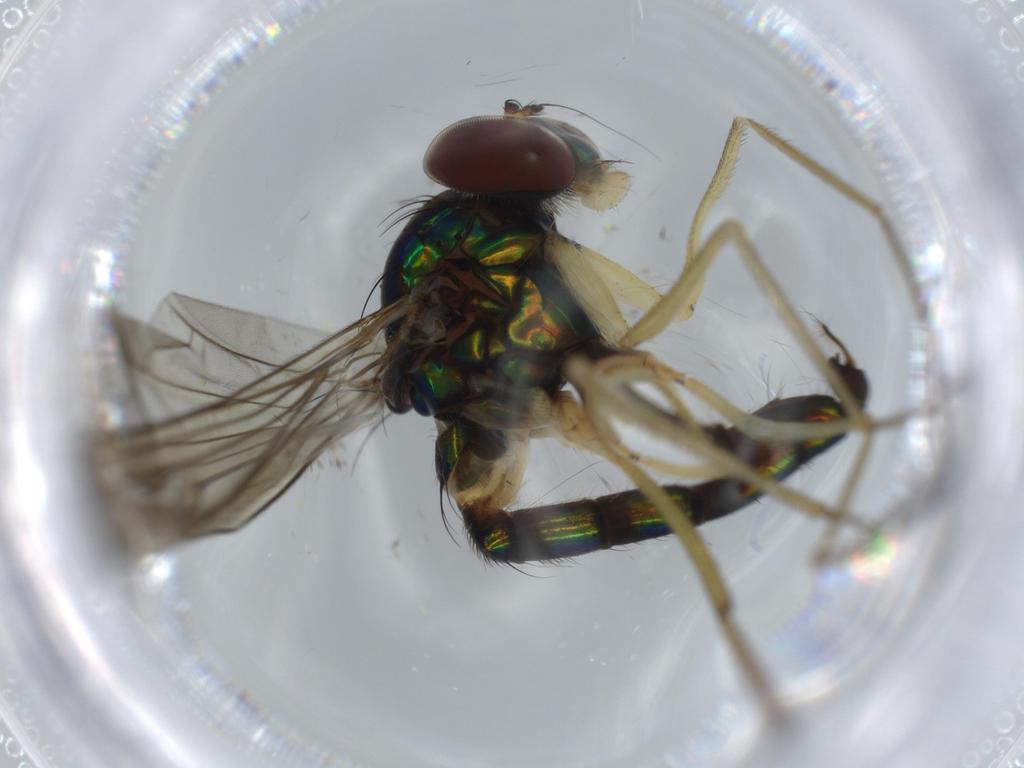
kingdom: Animalia
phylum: Arthropoda
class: Insecta
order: Diptera
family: Dolichopodidae
